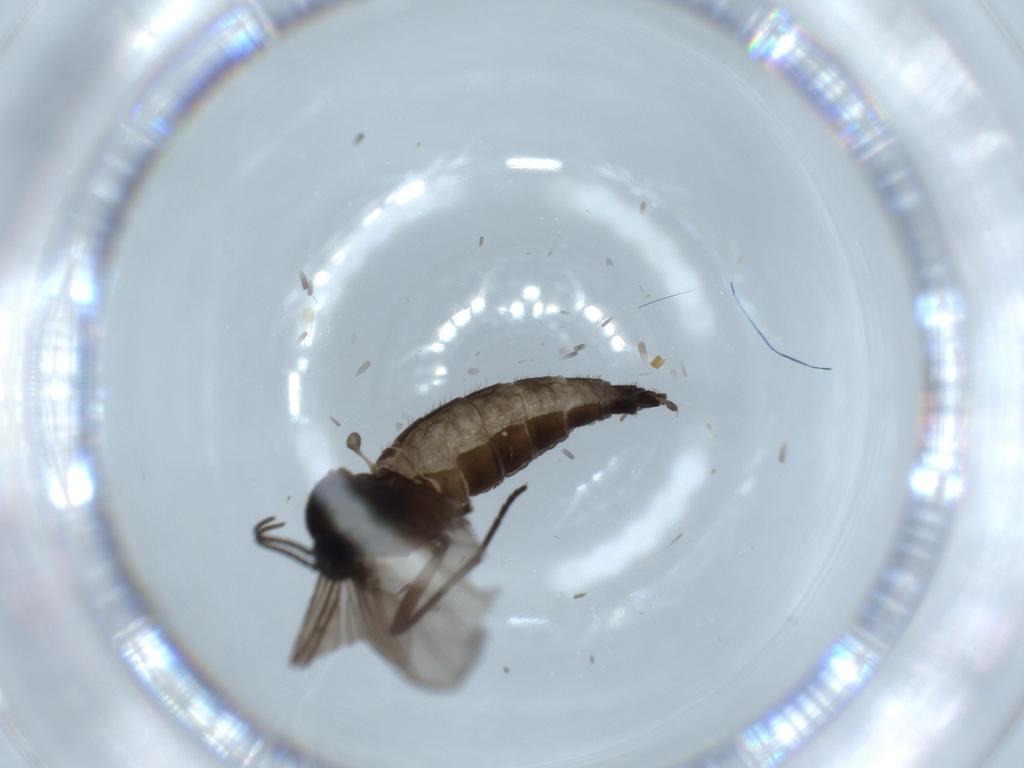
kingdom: Animalia
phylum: Arthropoda
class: Insecta
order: Diptera
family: Sciaridae
